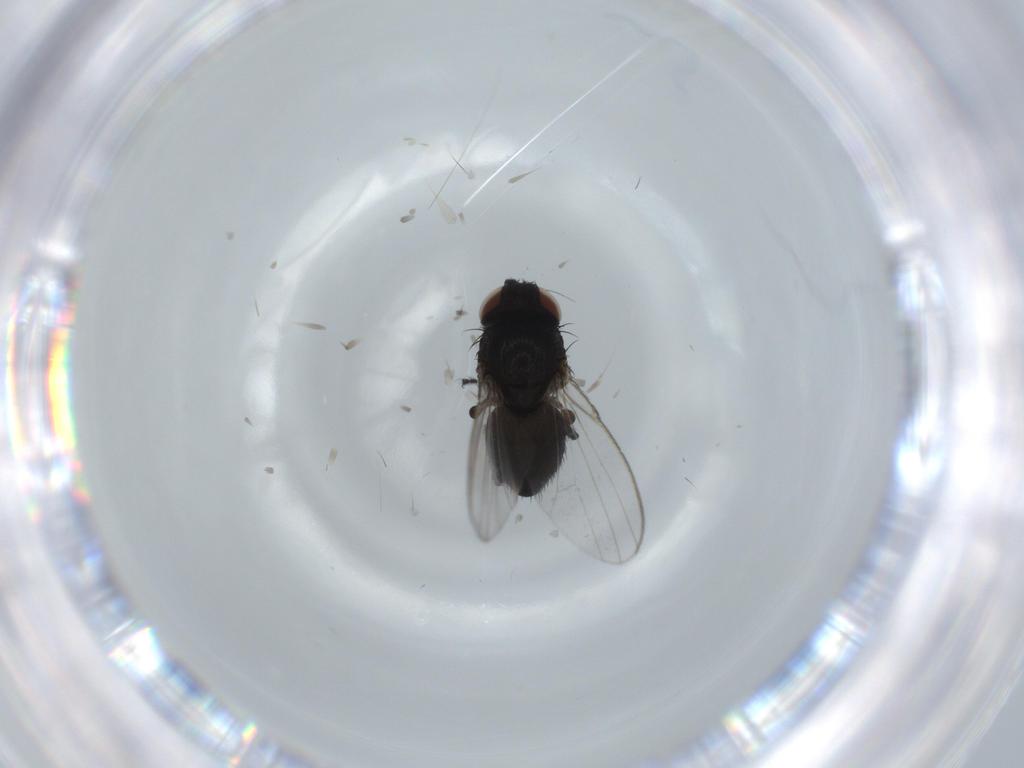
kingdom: Animalia
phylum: Arthropoda
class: Insecta
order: Diptera
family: Milichiidae
